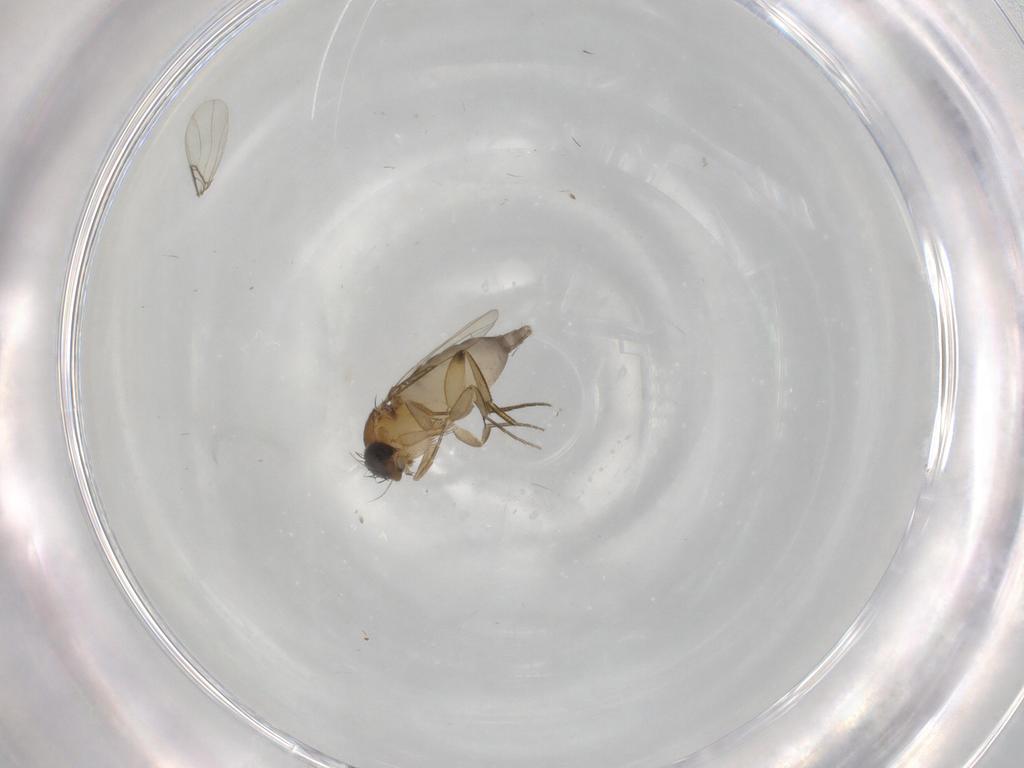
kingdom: Animalia
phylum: Arthropoda
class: Insecta
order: Diptera
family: Phoridae
